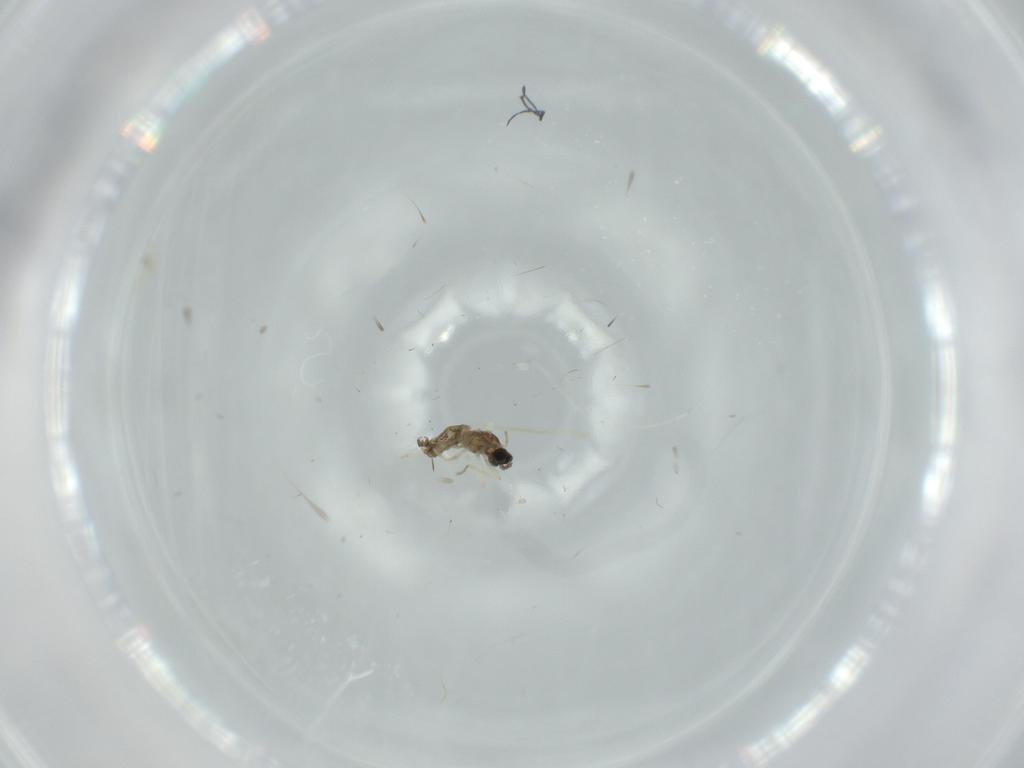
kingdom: Animalia
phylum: Arthropoda
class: Insecta
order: Diptera
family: Cecidomyiidae
